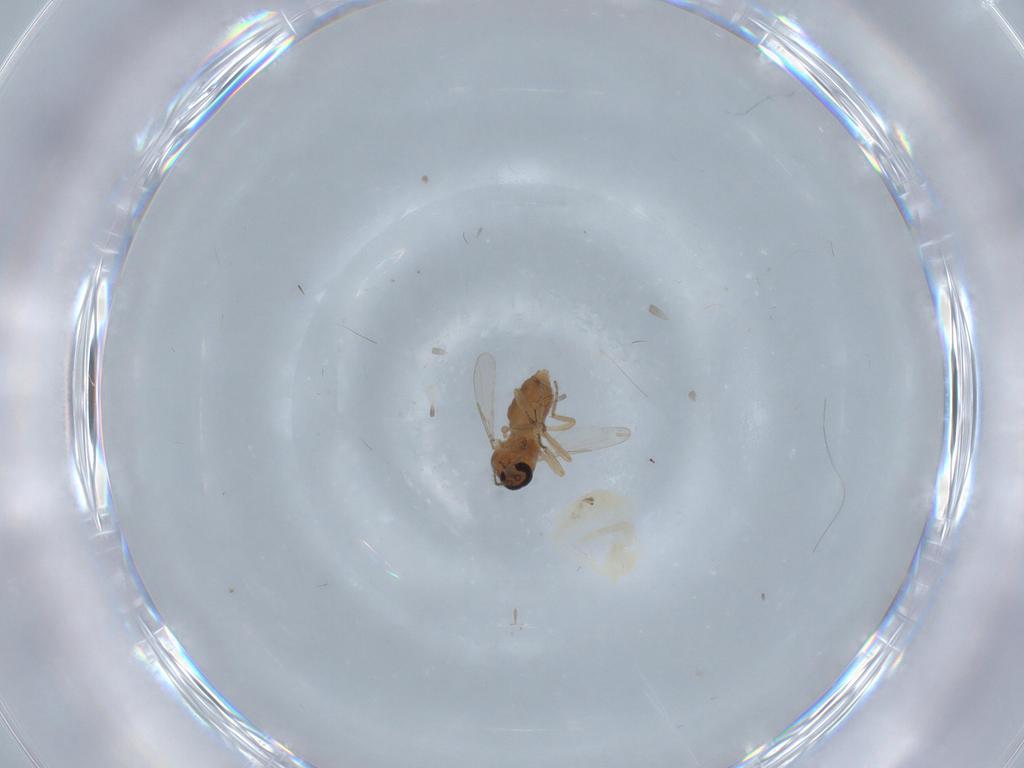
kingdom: Animalia
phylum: Arthropoda
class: Insecta
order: Diptera
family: Ceratopogonidae
